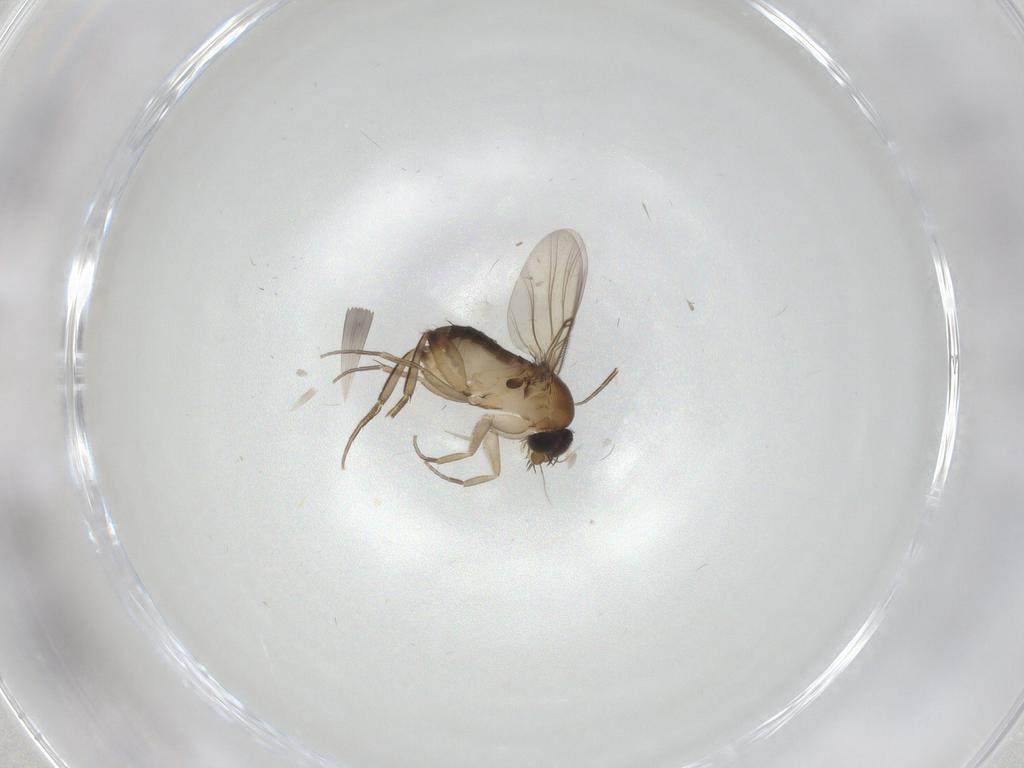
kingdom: Animalia
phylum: Arthropoda
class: Insecta
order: Diptera
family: Phoridae
